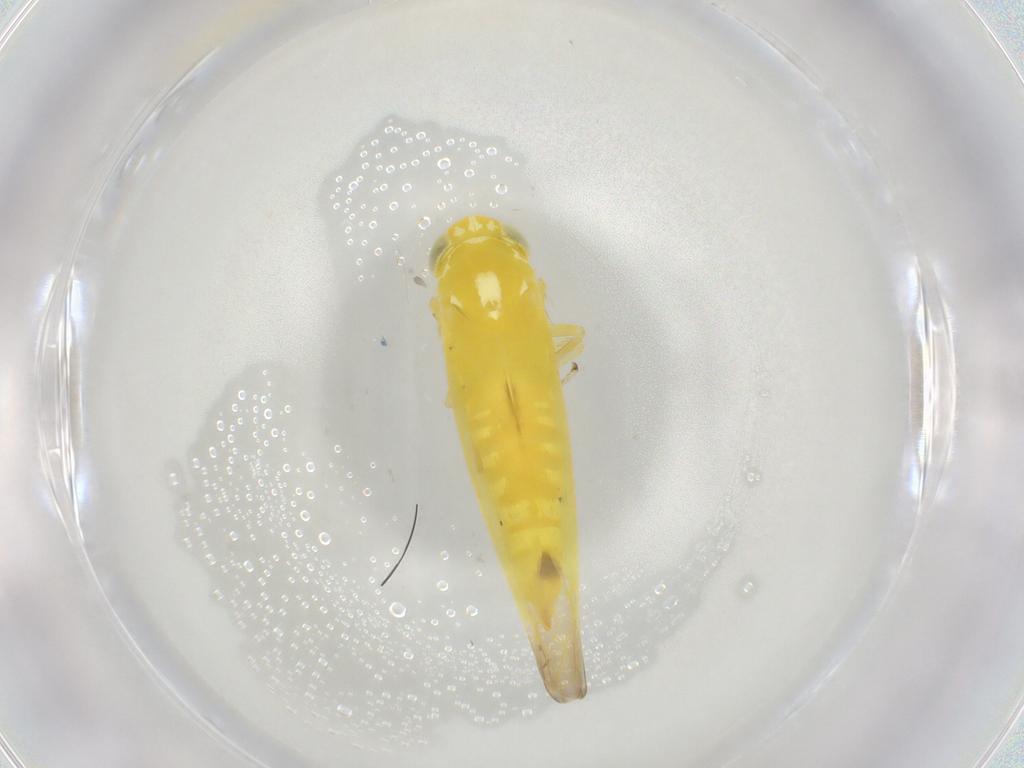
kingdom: Animalia
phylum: Arthropoda
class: Insecta
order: Hemiptera
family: Cicadellidae
